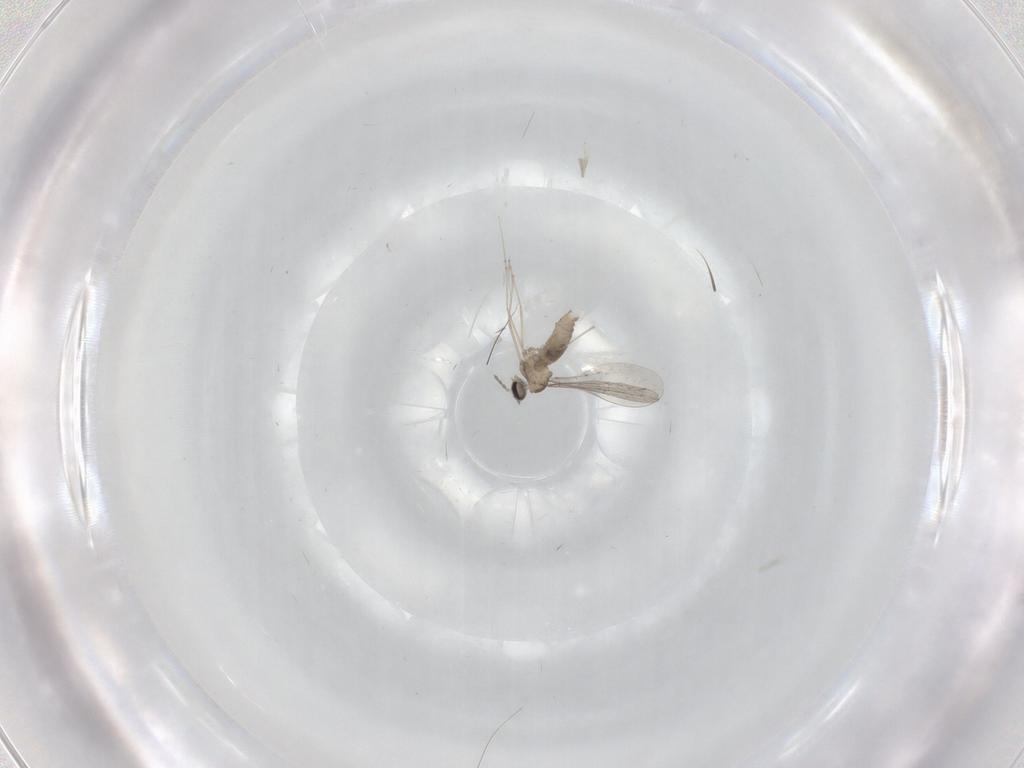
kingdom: Animalia
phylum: Arthropoda
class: Insecta
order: Diptera
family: Cecidomyiidae
